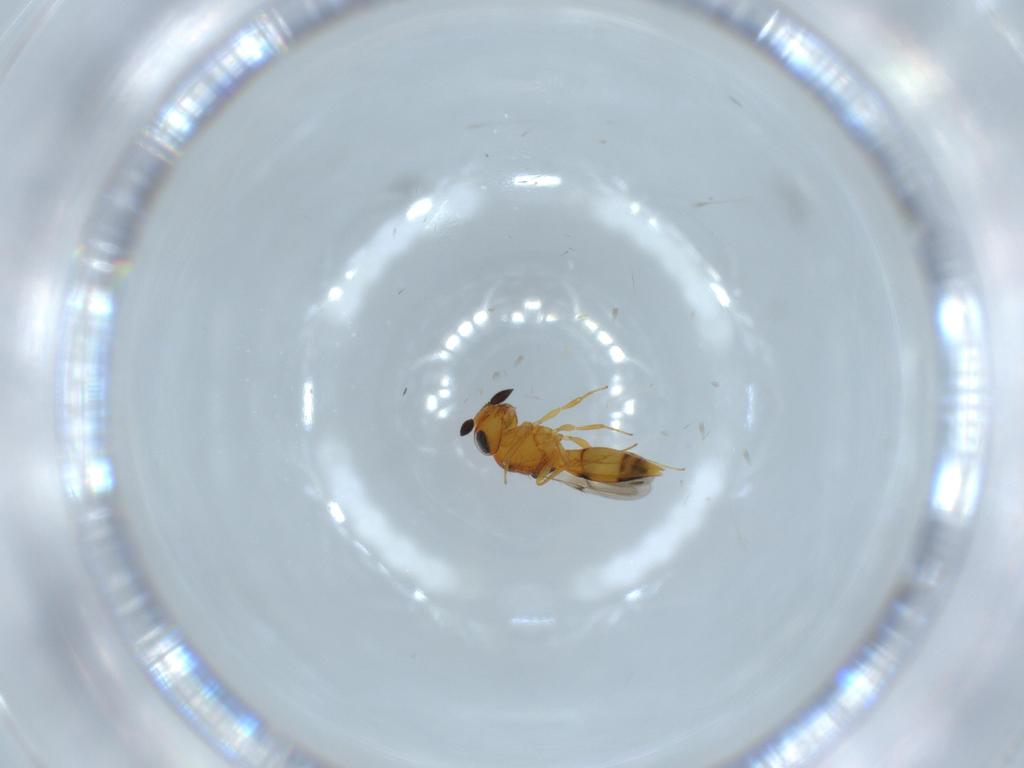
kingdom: Animalia
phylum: Arthropoda
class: Insecta
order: Hymenoptera
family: Scelionidae
